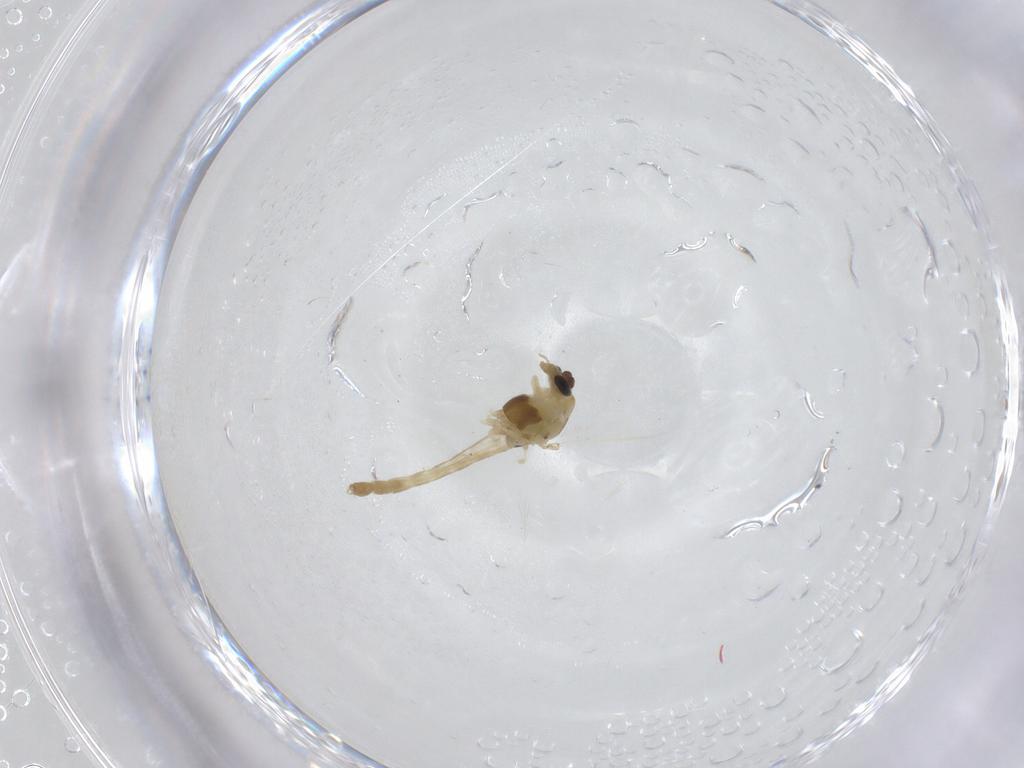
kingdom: Animalia
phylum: Arthropoda
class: Insecta
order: Diptera
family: Chironomidae
